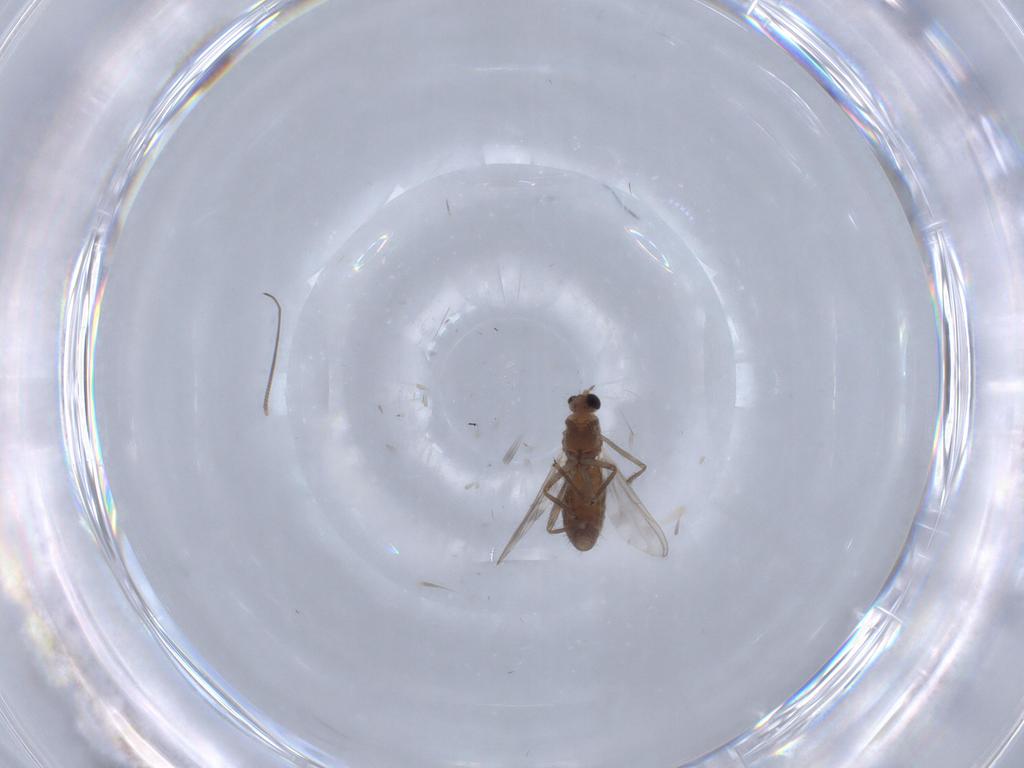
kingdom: Animalia
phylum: Arthropoda
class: Insecta
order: Diptera
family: Chironomidae
